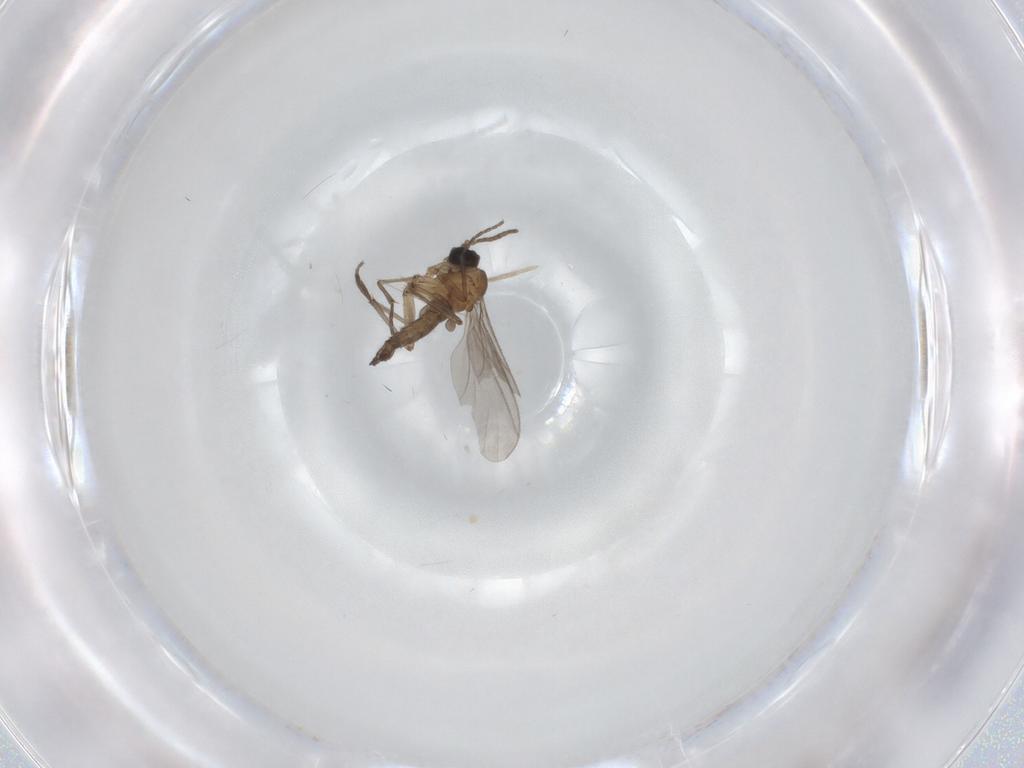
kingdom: Animalia
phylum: Arthropoda
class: Insecta
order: Diptera
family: Sciaridae
